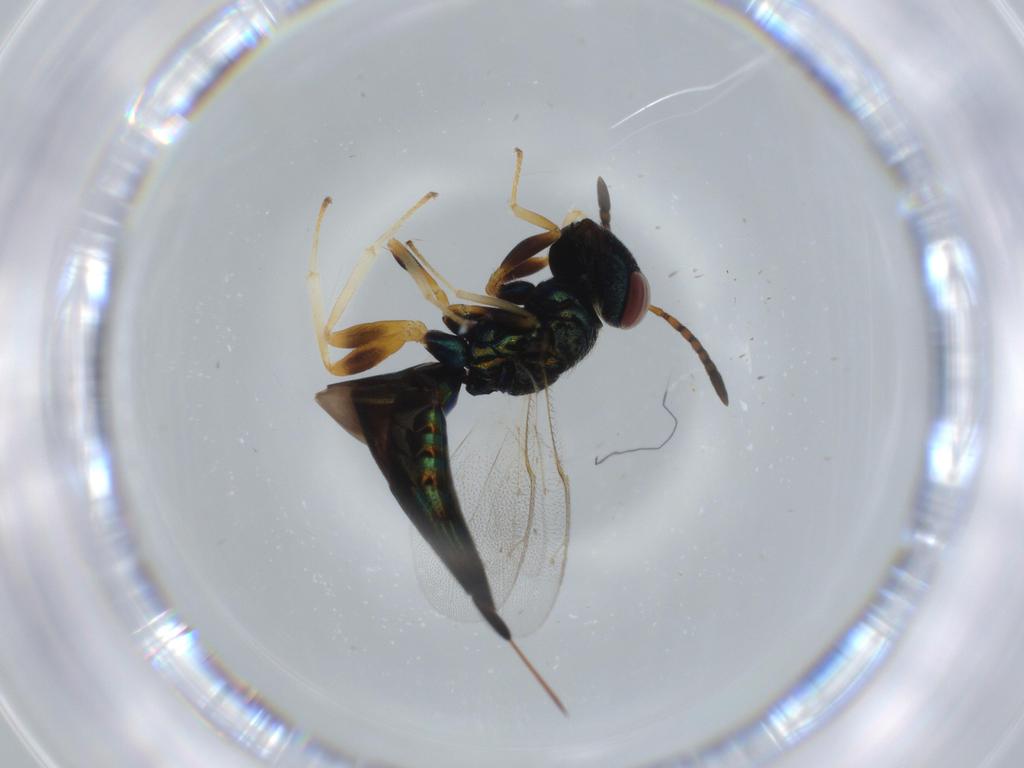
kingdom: Animalia
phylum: Arthropoda
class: Insecta
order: Hymenoptera
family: Pteromalidae
